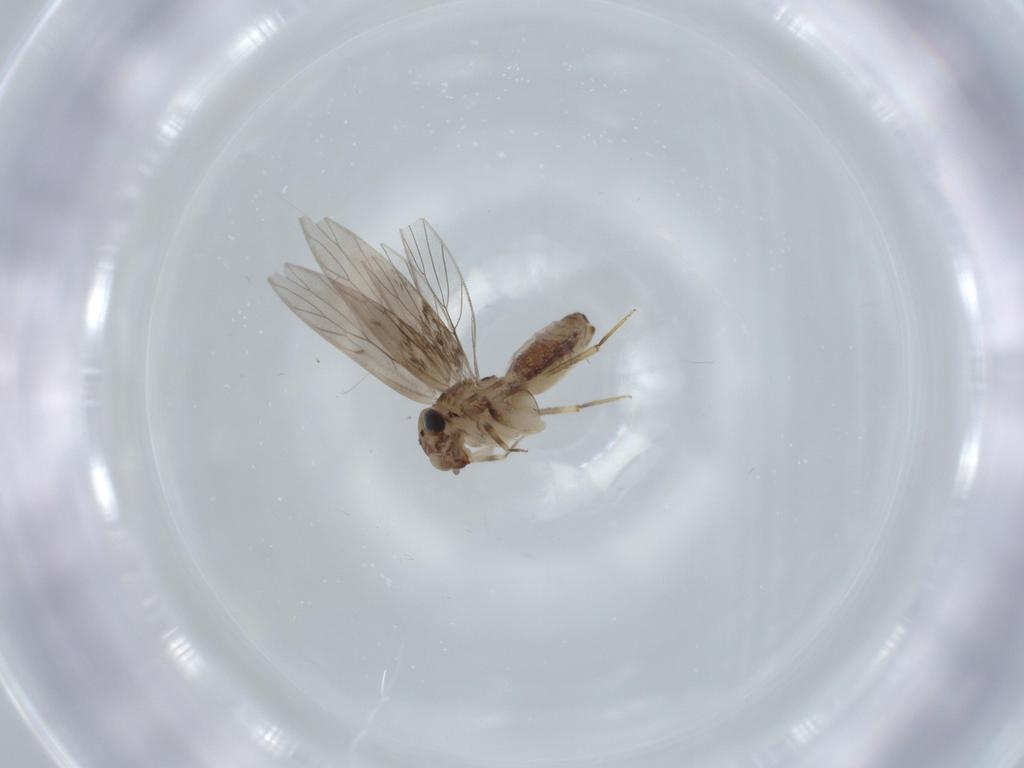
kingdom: Animalia
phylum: Arthropoda
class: Insecta
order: Psocodea
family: Lepidopsocidae
